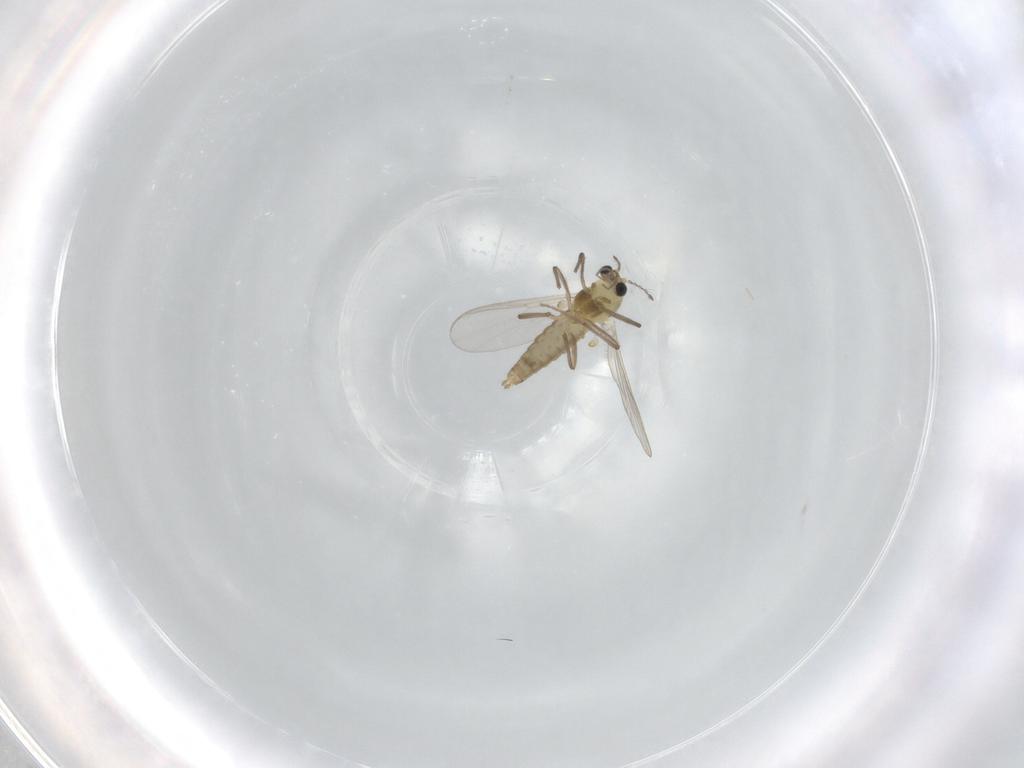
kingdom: Animalia
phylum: Arthropoda
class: Insecta
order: Diptera
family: Chironomidae
